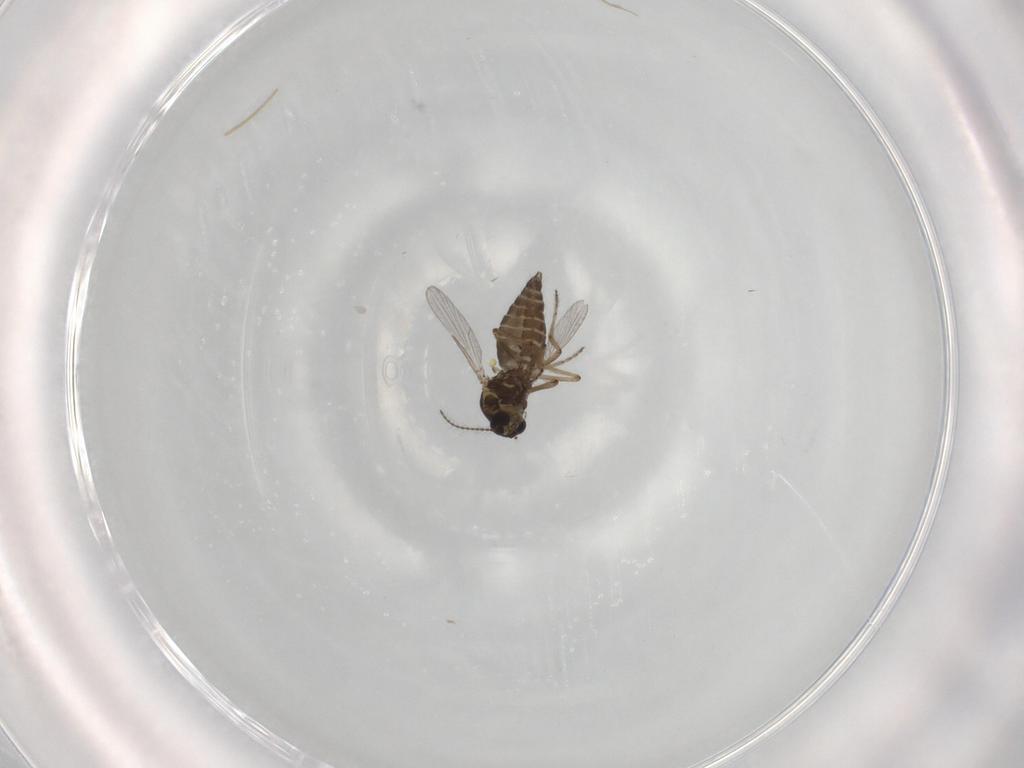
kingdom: Animalia
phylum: Arthropoda
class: Insecta
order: Diptera
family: Ceratopogonidae
